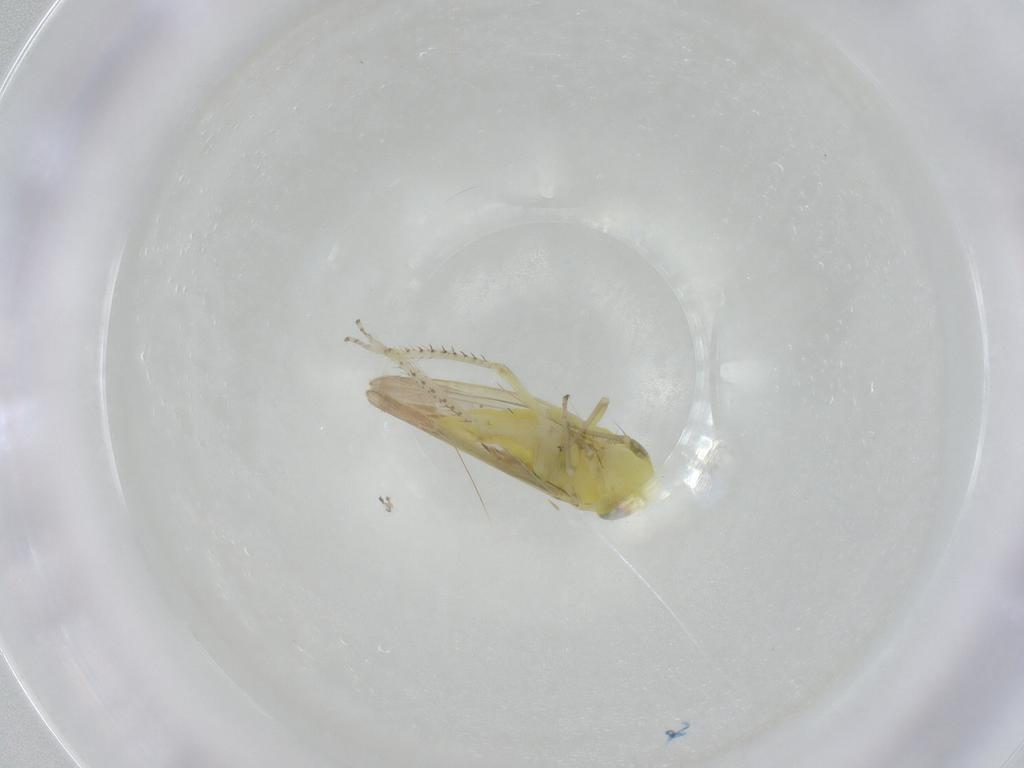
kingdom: Animalia
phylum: Arthropoda
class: Insecta
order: Hemiptera
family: Cicadellidae
